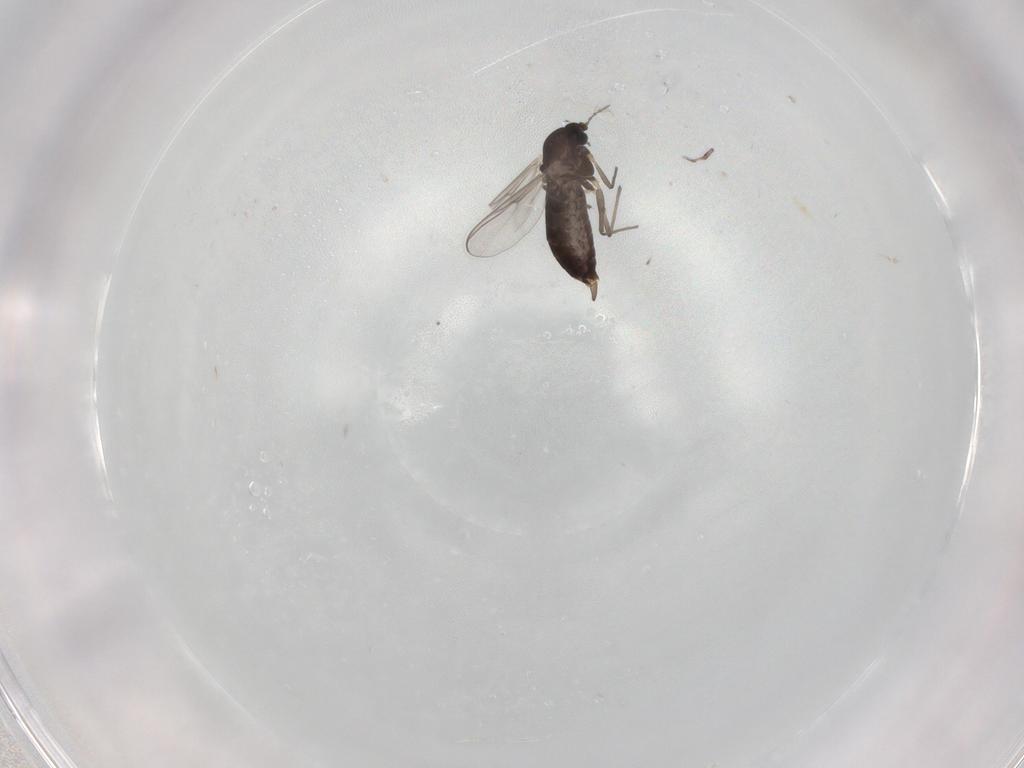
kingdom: Animalia
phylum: Arthropoda
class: Insecta
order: Diptera
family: Chironomidae
